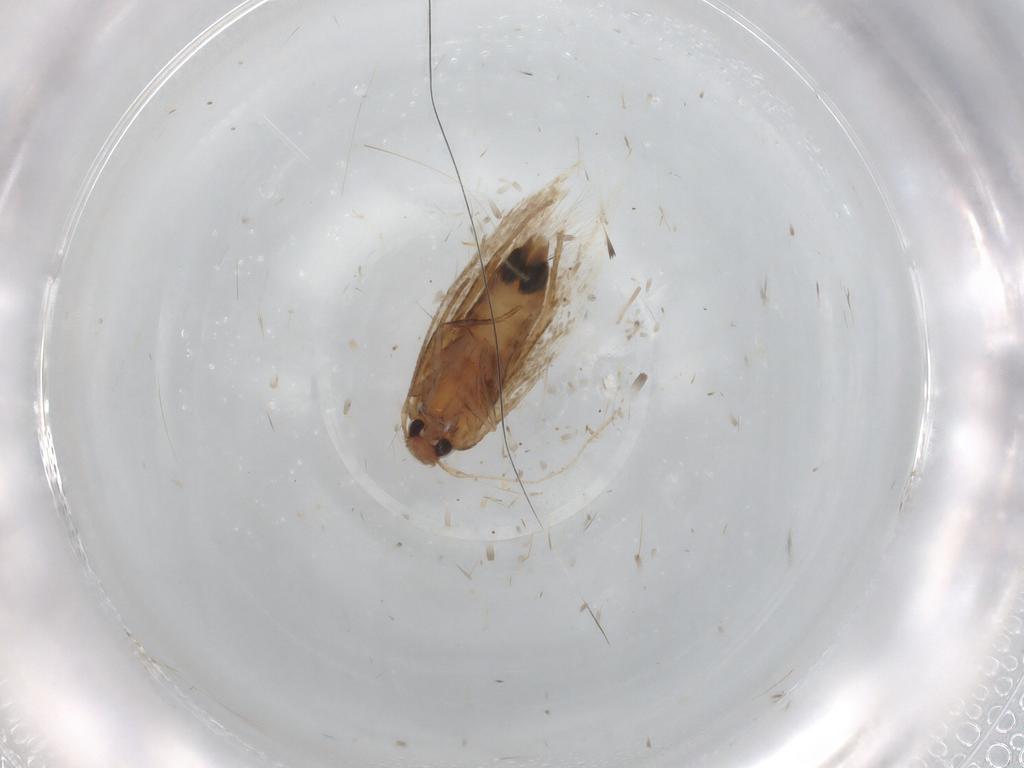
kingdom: Animalia
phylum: Arthropoda
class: Insecta
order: Lepidoptera
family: Cosmopterigidae
